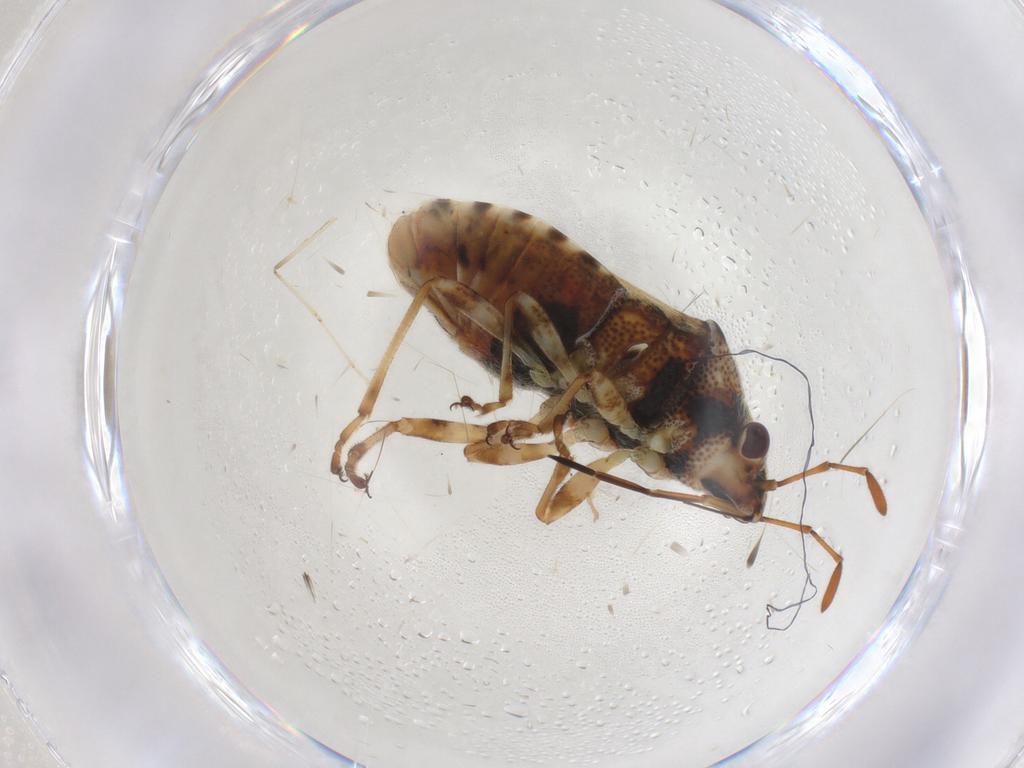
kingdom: Animalia
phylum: Arthropoda
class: Insecta
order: Hemiptera
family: Lygaeidae
